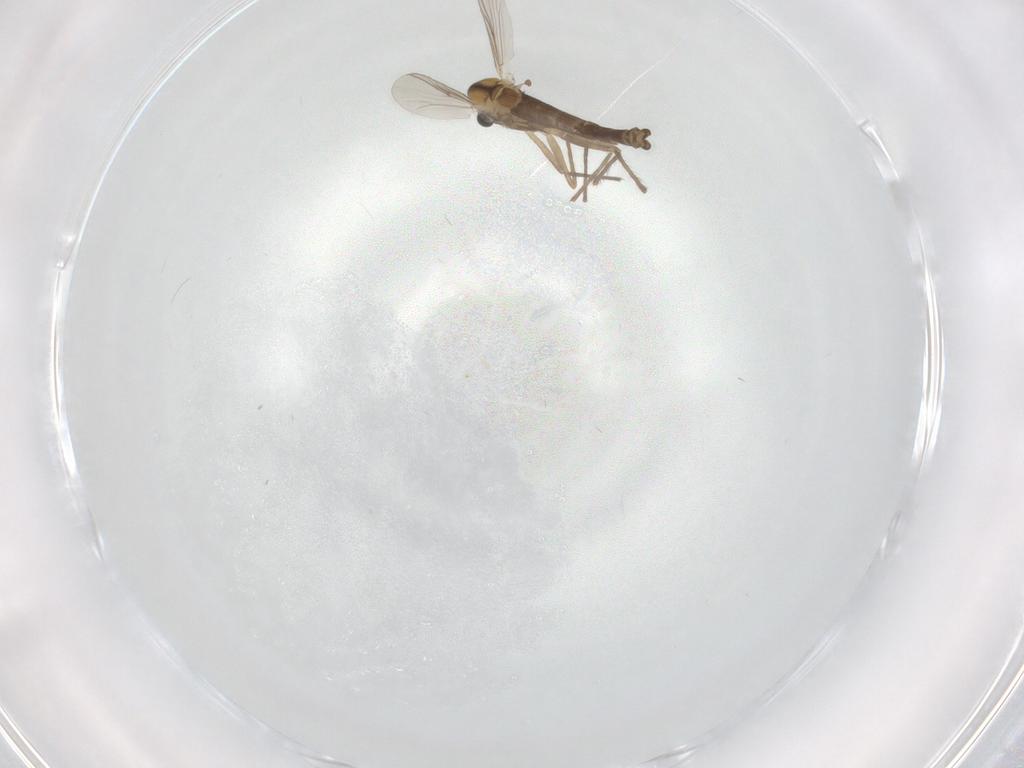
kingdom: Animalia
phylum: Arthropoda
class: Insecta
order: Diptera
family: Chironomidae
